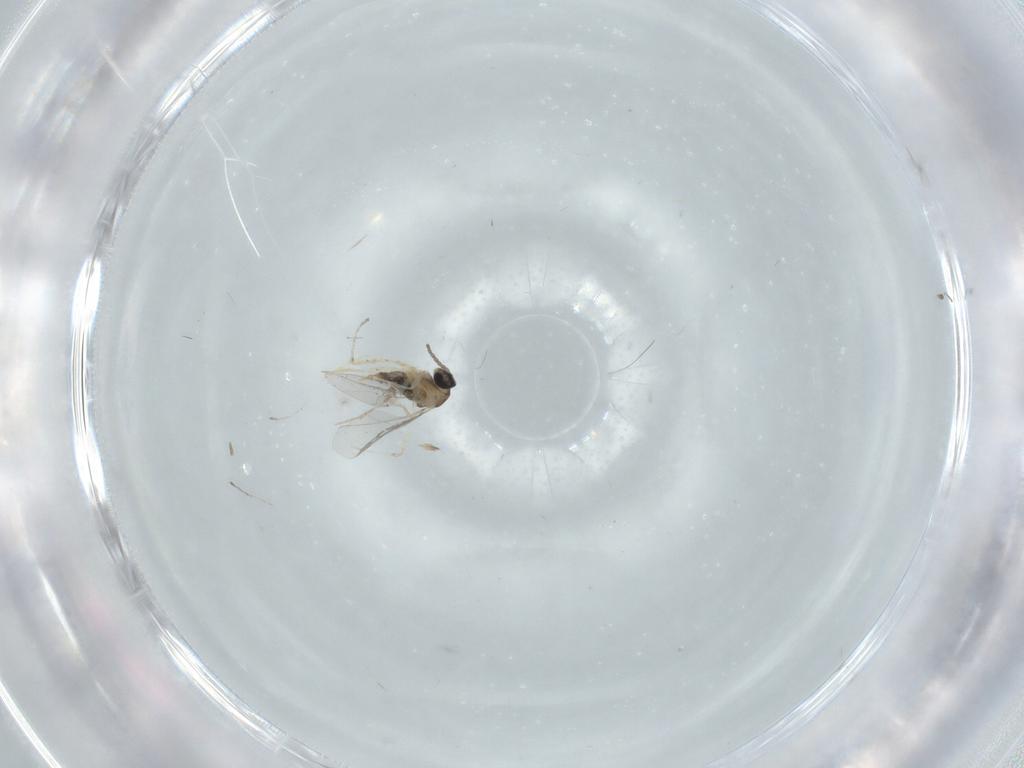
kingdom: Animalia
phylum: Arthropoda
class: Insecta
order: Diptera
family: Cecidomyiidae
